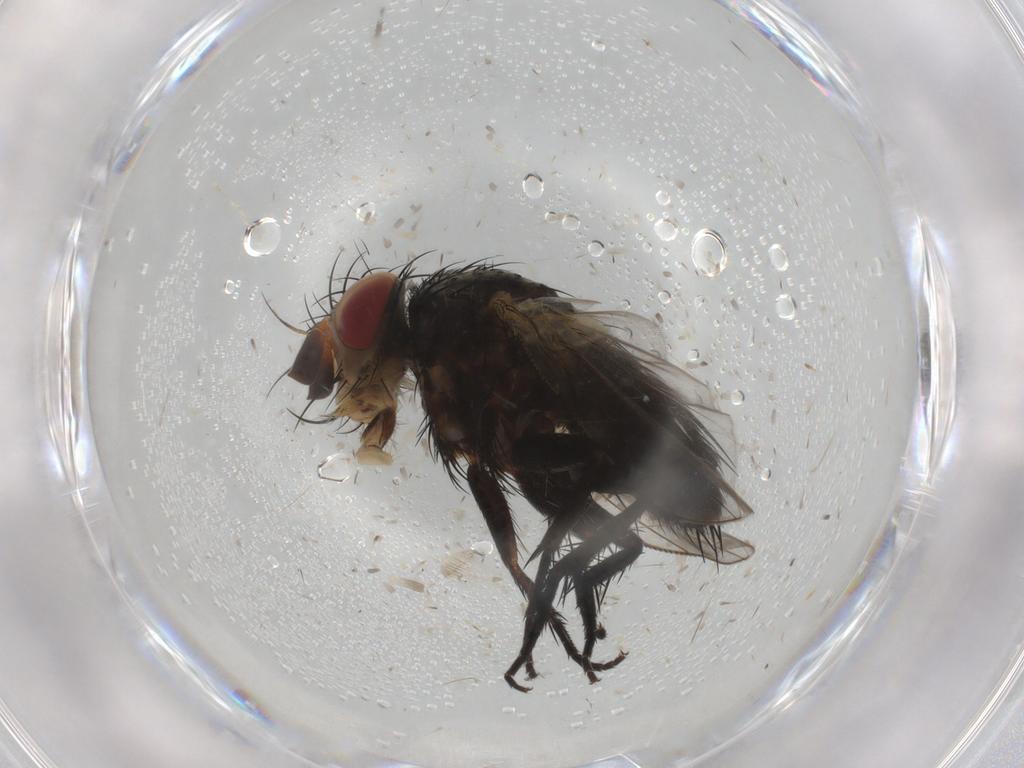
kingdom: Animalia
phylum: Arthropoda
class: Insecta
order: Diptera
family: Tachinidae
